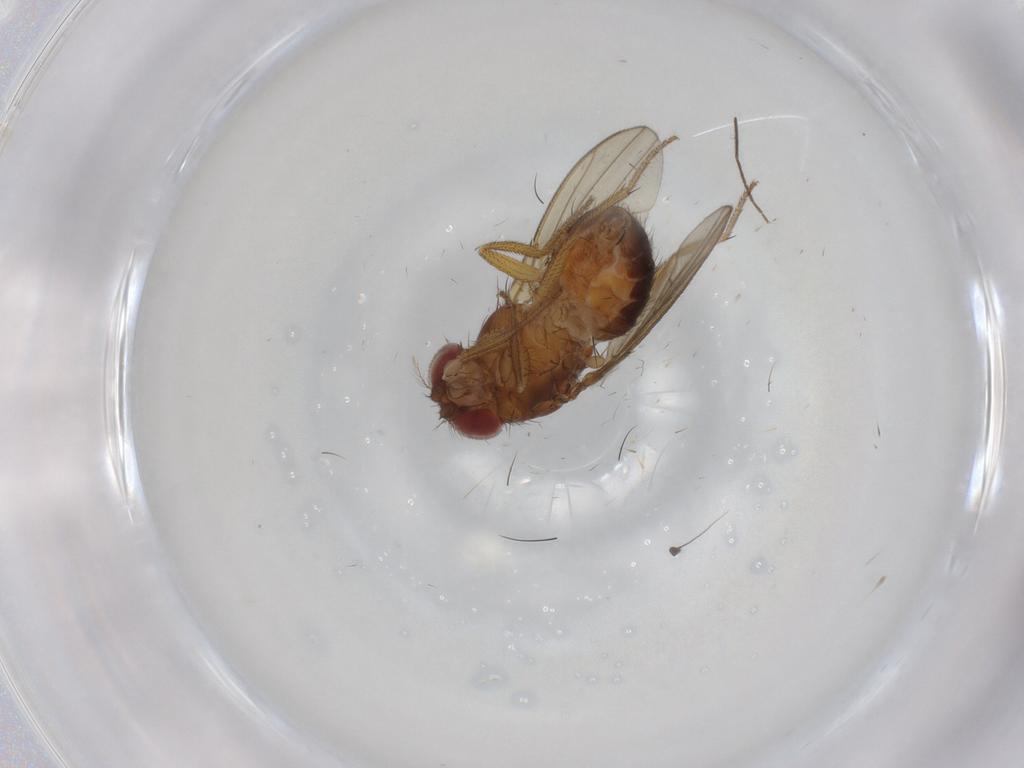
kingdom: Animalia
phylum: Arthropoda
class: Insecta
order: Diptera
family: Drosophilidae
